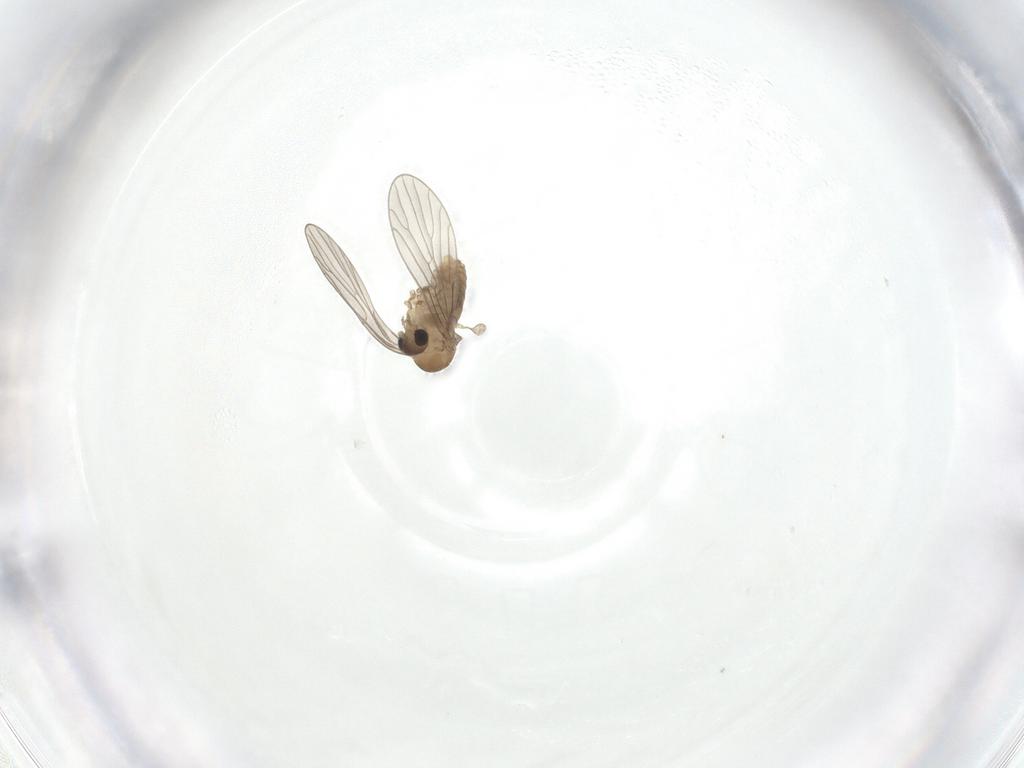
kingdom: Animalia
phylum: Arthropoda
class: Insecta
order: Diptera
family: Psychodidae
